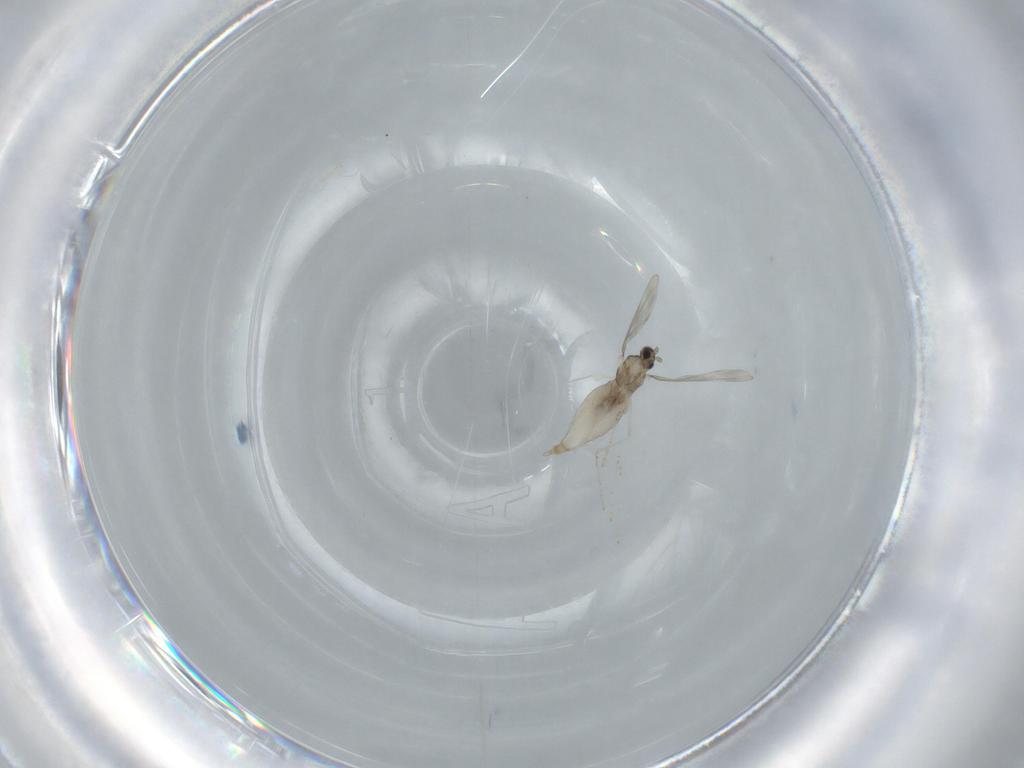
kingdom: Animalia
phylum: Arthropoda
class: Insecta
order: Diptera
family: Cecidomyiidae
